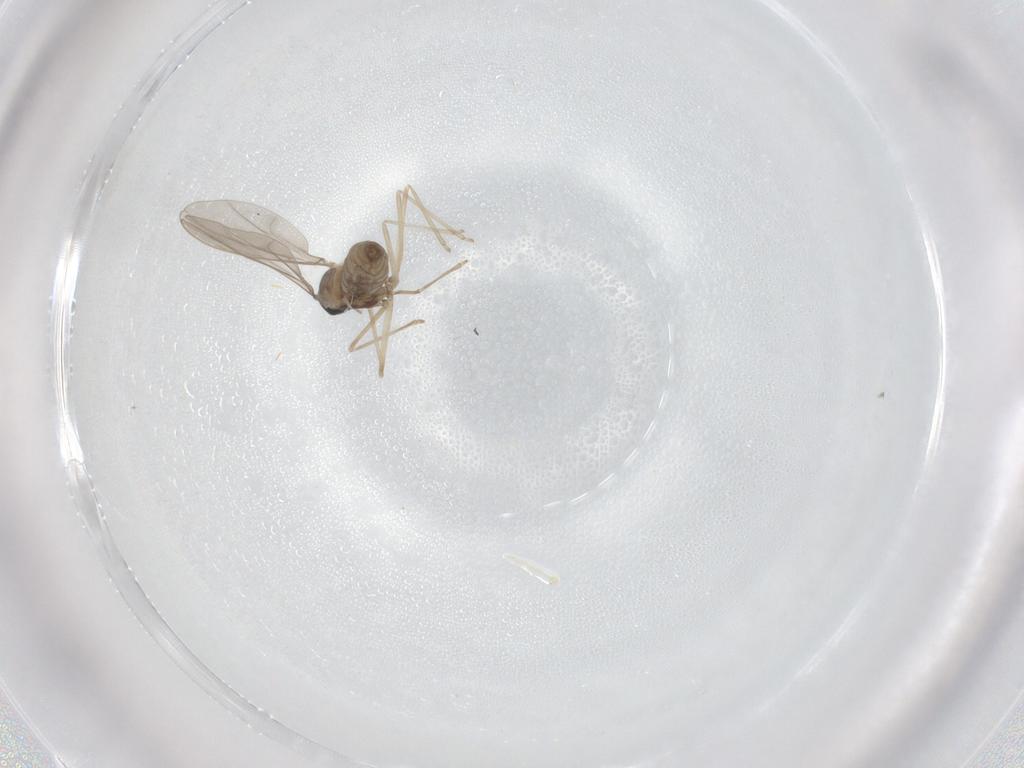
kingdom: Animalia
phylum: Arthropoda
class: Insecta
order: Diptera
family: Cecidomyiidae
